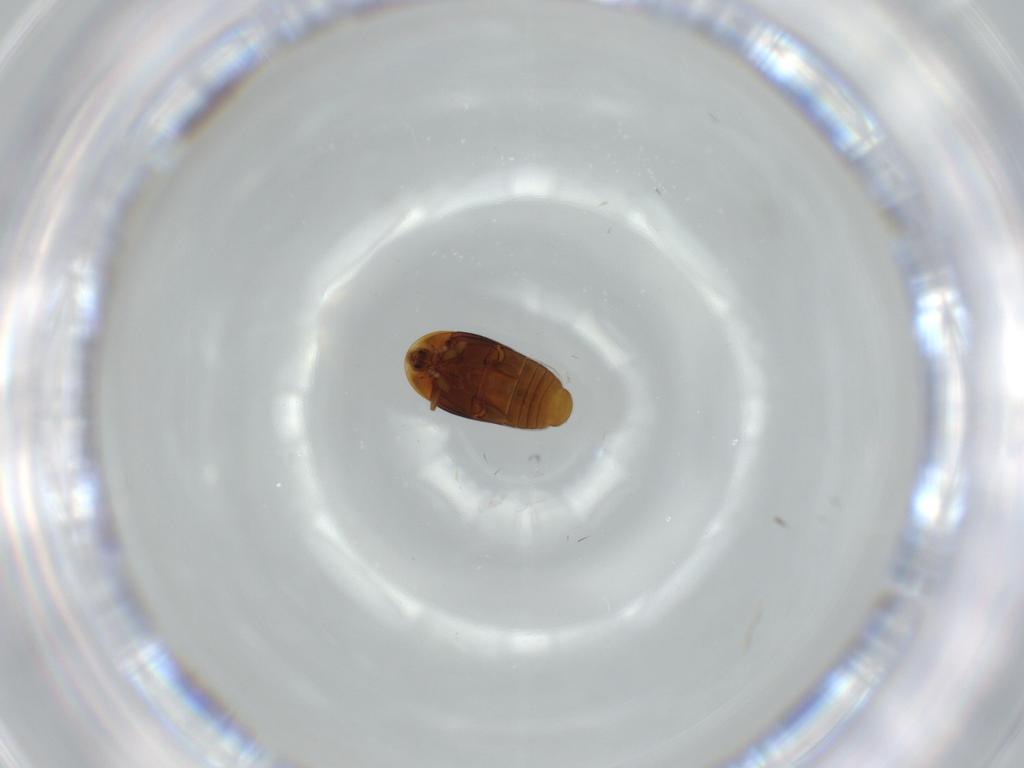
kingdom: Animalia
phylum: Arthropoda
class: Insecta
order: Coleoptera
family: Corylophidae
